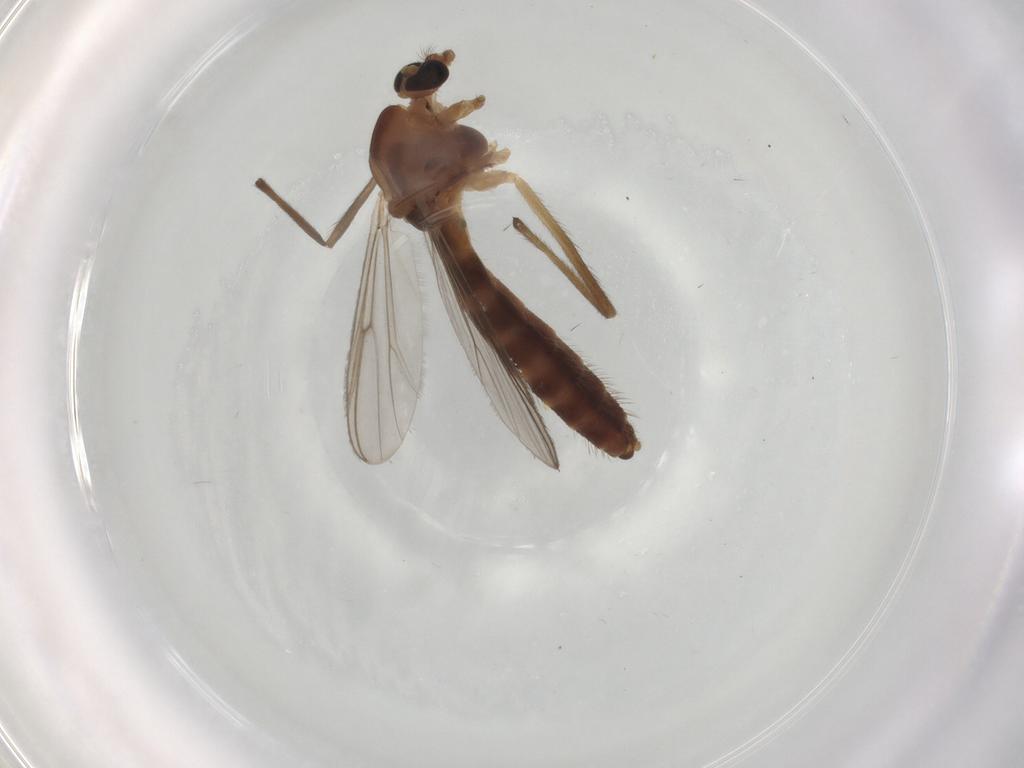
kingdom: Animalia
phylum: Arthropoda
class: Insecta
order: Diptera
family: Chironomidae
